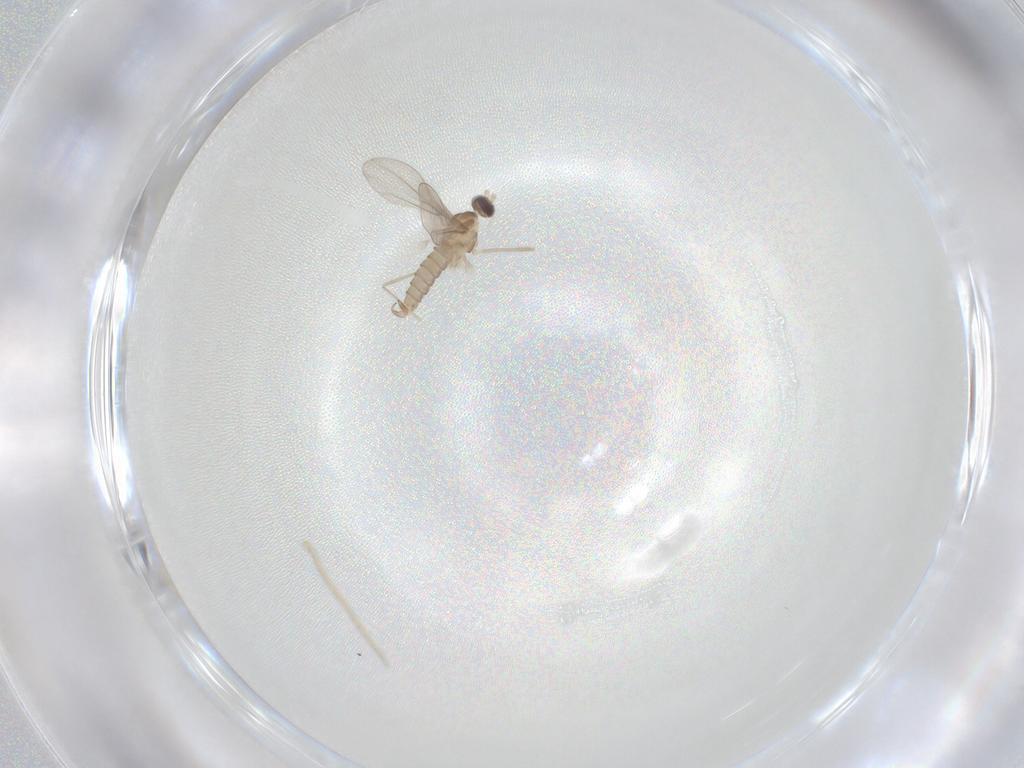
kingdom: Animalia
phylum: Arthropoda
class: Insecta
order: Diptera
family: Cecidomyiidae
